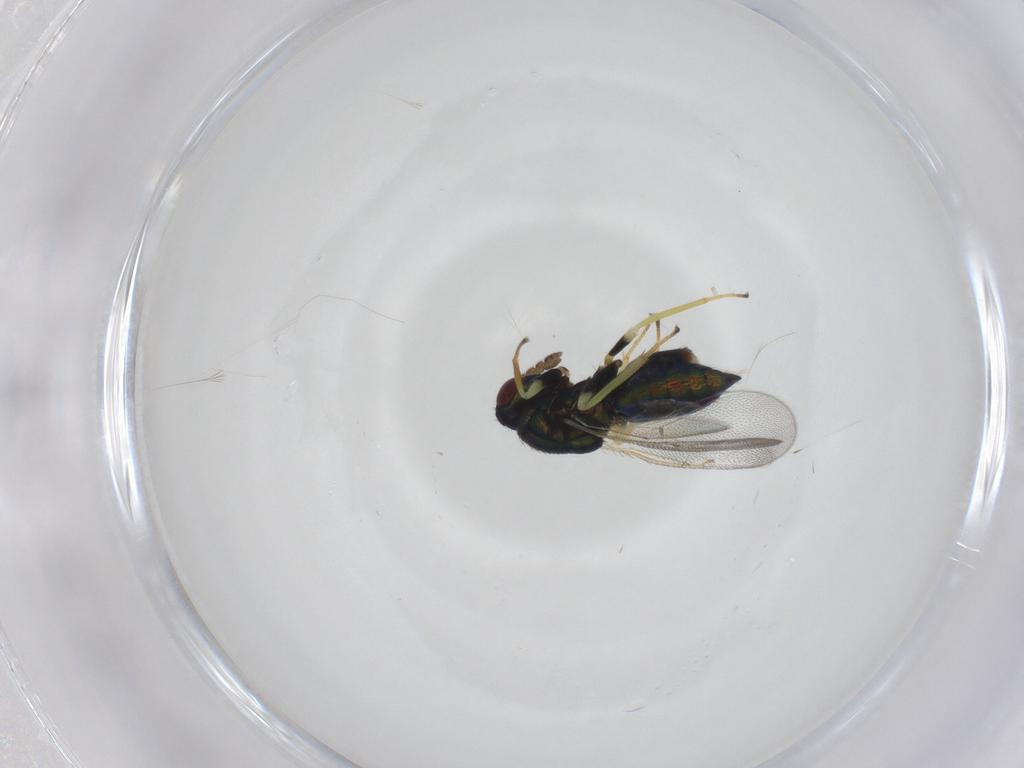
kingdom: Animalia
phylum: Arthropoda
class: Insecta
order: Hymenoptera
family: Eulophidae
